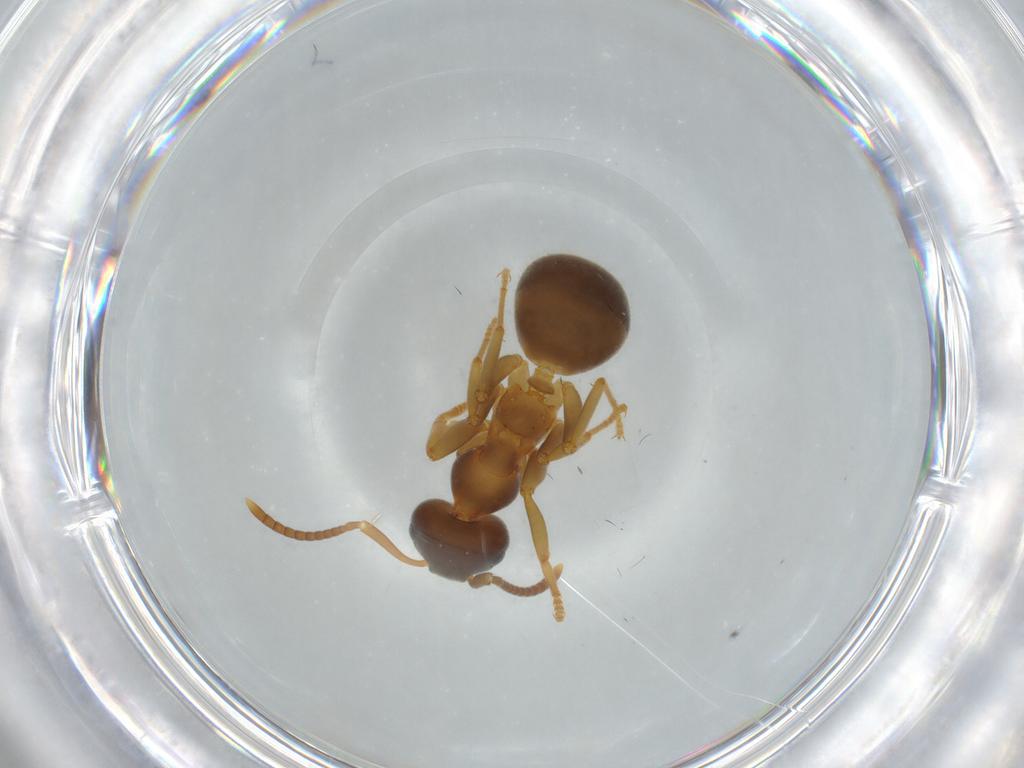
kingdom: Animalia
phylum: Arthropoda
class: Insecta
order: Hymenoptera
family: Formicidae
